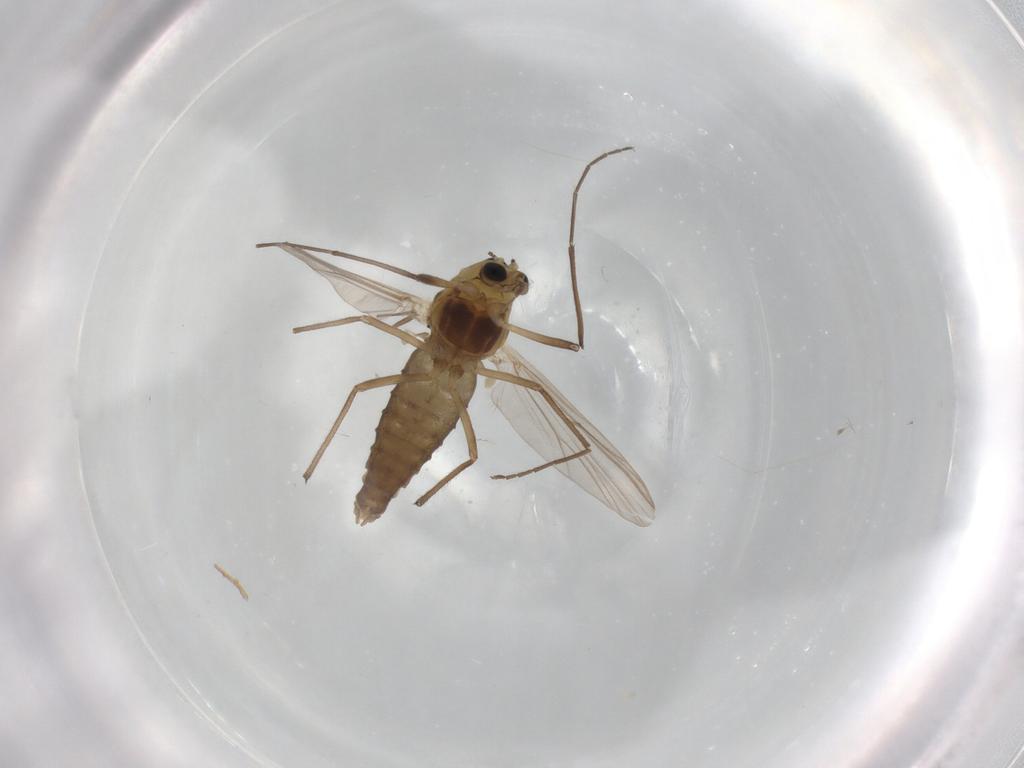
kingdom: Animalia
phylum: Arthropoda
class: Insecta
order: Diptera
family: Drosophilidae
